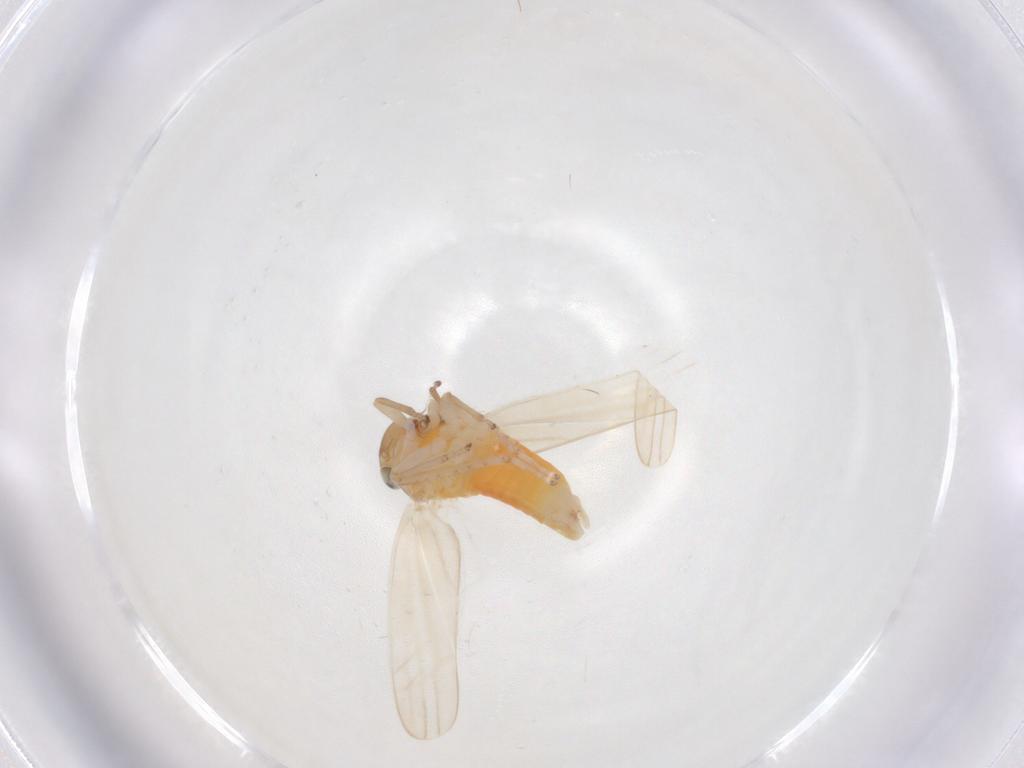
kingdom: Animalia
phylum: Arthropoda
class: Insecta
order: Hemiptera
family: Cicadellidae
